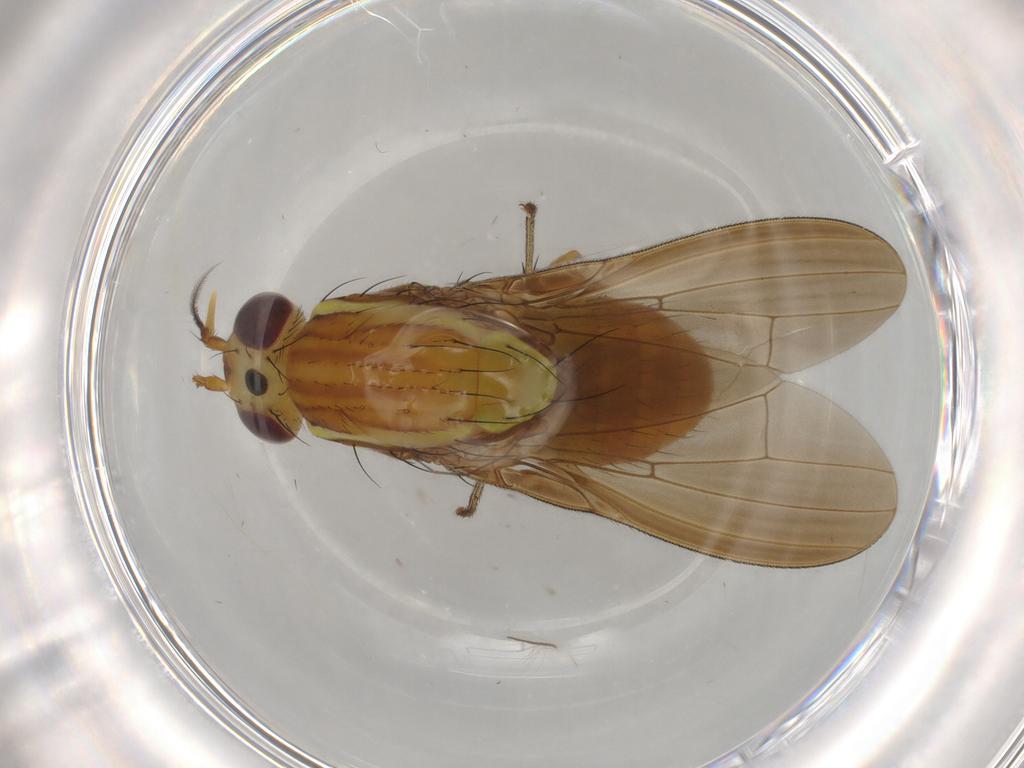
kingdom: Animalia
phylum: Arthropoda
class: Insecta
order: Diptera
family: Lauxaniidae
